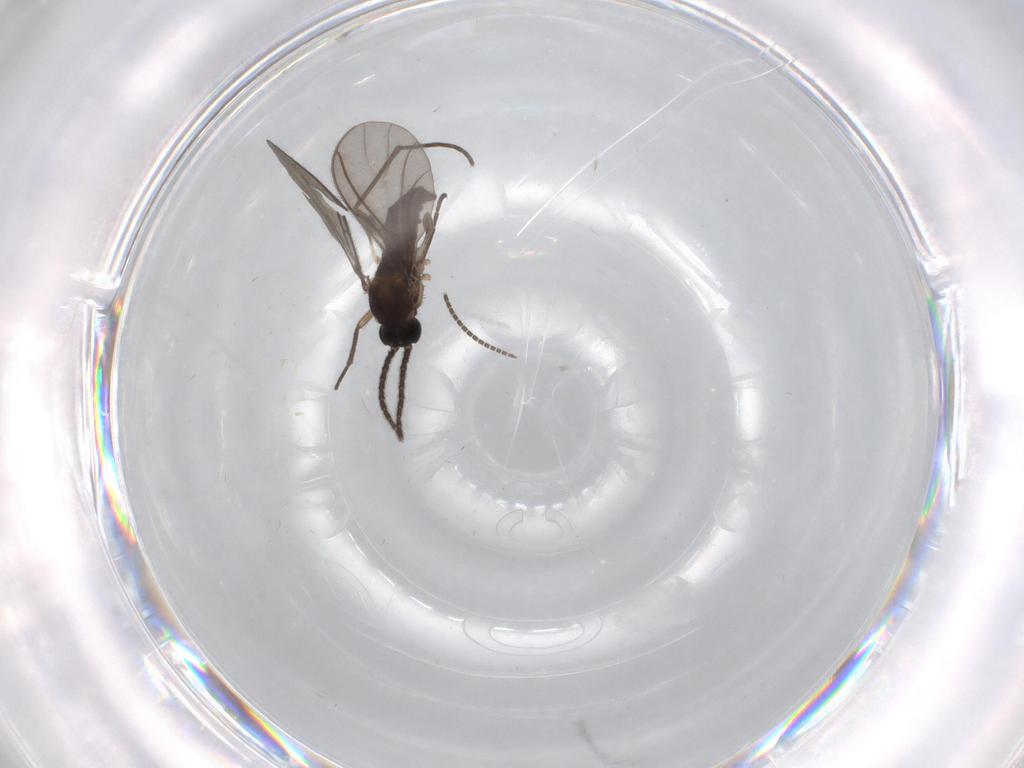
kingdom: Animalia
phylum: Arthropoda
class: Insecta
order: Diptera
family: Sciaridae
